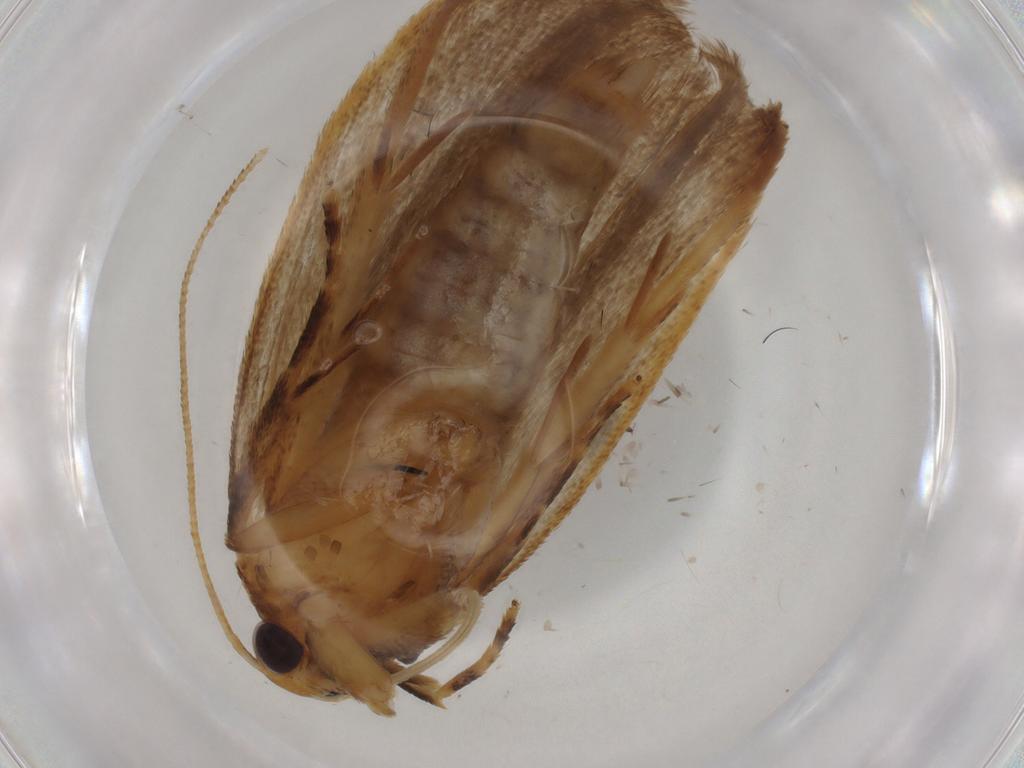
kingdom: Animalia
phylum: Arthropoda
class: Insecta
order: Lepidoptera
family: Gelechiidae
